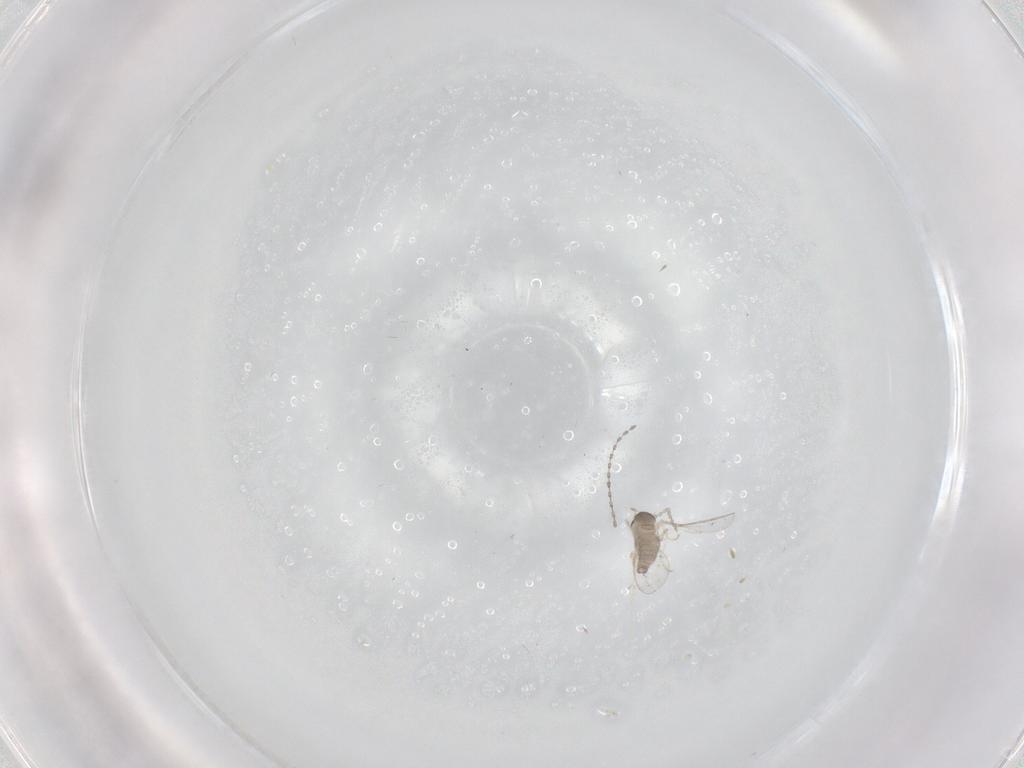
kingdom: Animalia
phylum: Arthropoda
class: Insecta
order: Diptera
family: Cecidomyiidae
